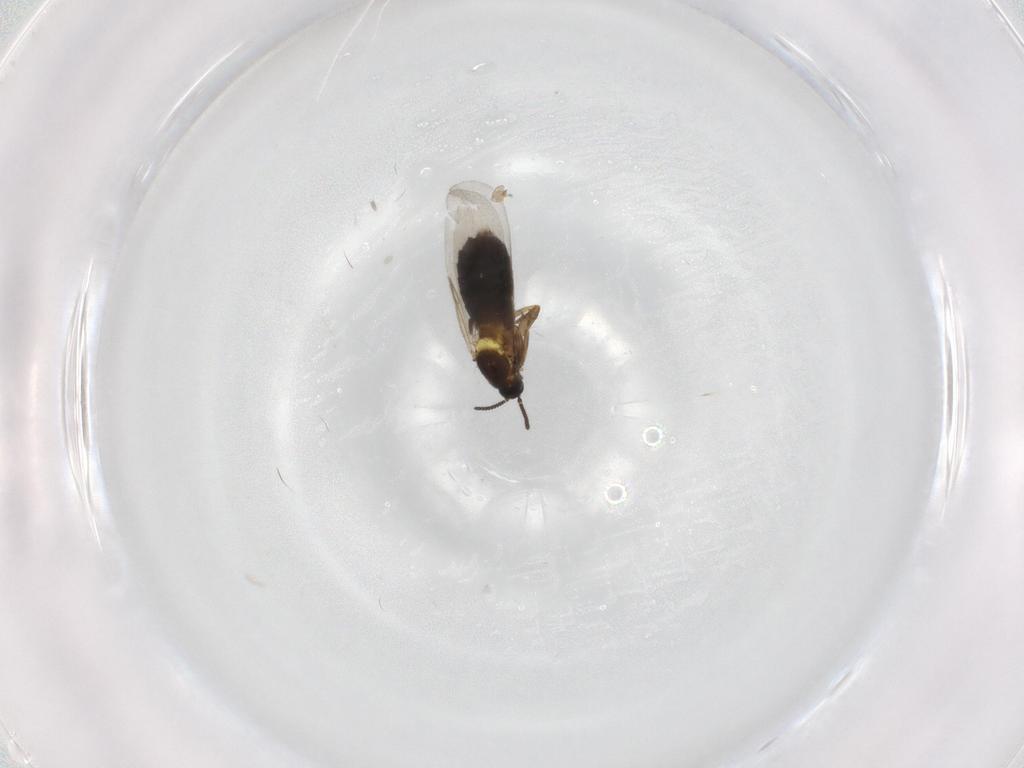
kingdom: Animalia
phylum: Arthropoda
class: Insecta
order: Diptera
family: Scatopsidae
